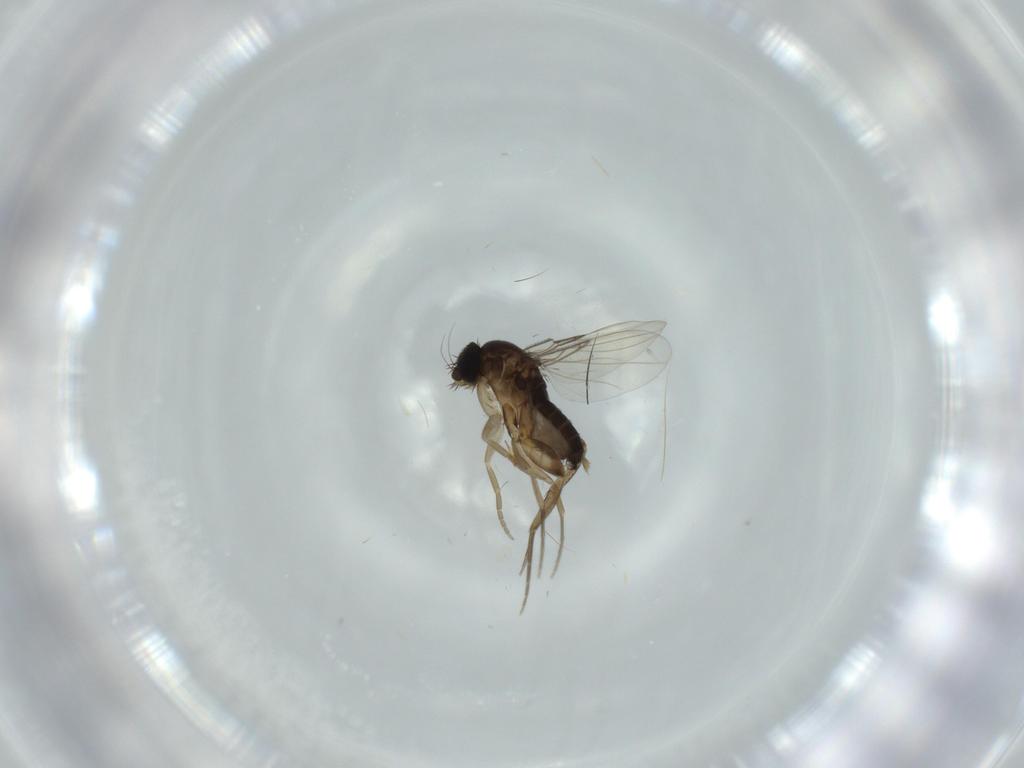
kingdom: Animalia
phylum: Arthropoda
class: Insecta
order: Diptera
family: Phoridae
